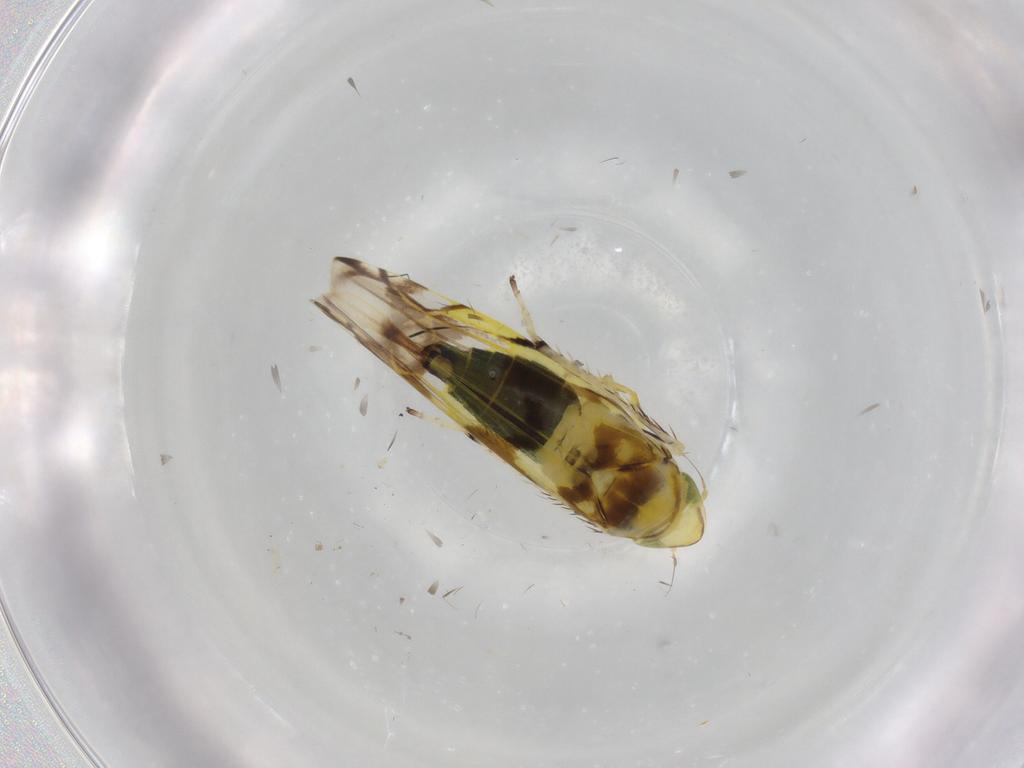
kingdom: Animalia
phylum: Arthropoda
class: Insecta
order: Hemiptera
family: Cicadellidae
